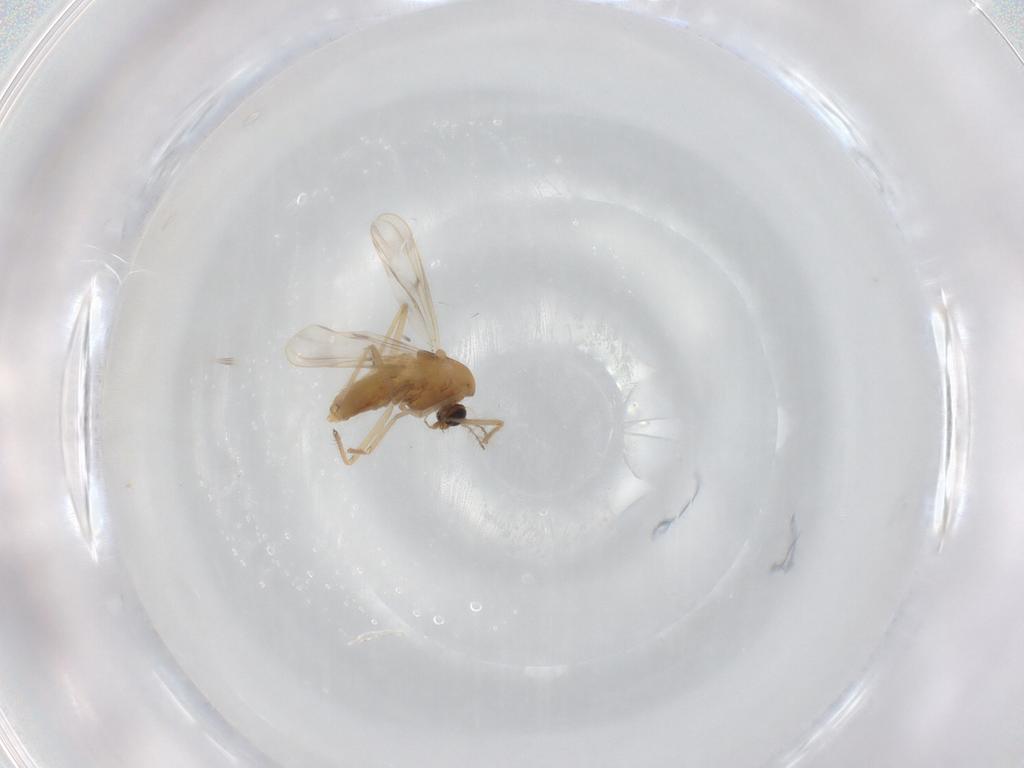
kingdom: Animalia
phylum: Arthropoda
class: Insecta
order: Diptera
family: Chironomidae
